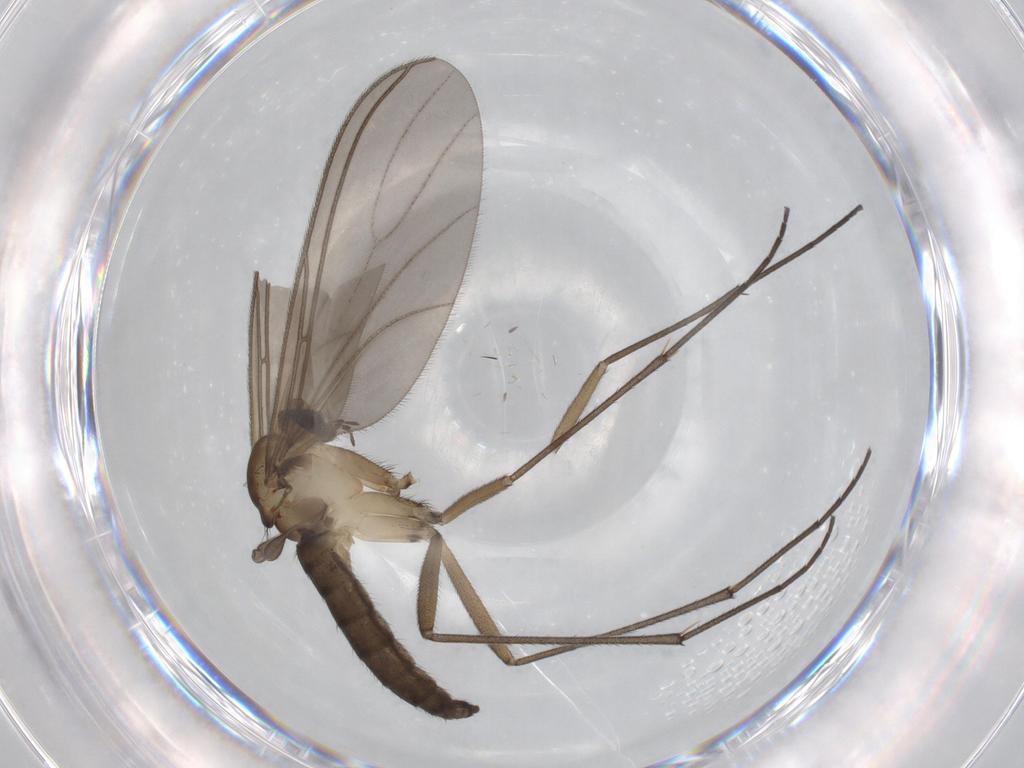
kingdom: Animalia
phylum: Arthropoda
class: Insecta
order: Diptera
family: Sciaridae
